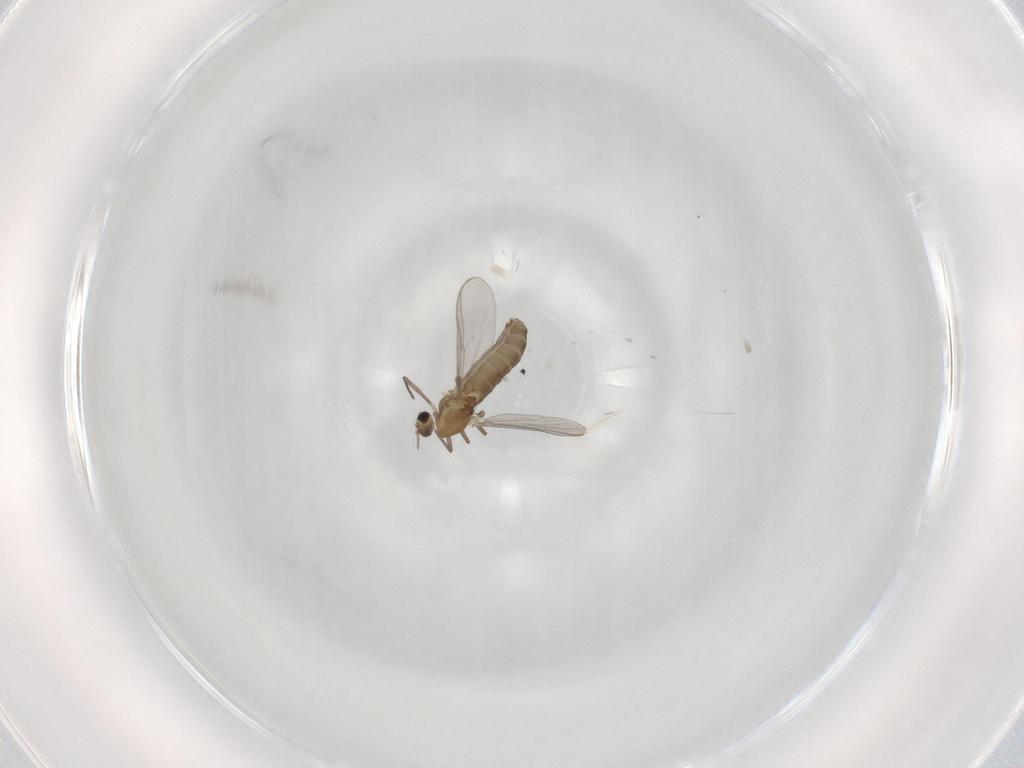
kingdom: Animalia
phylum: Arthropoda
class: Insecta
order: Diptera
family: Chironomidae
